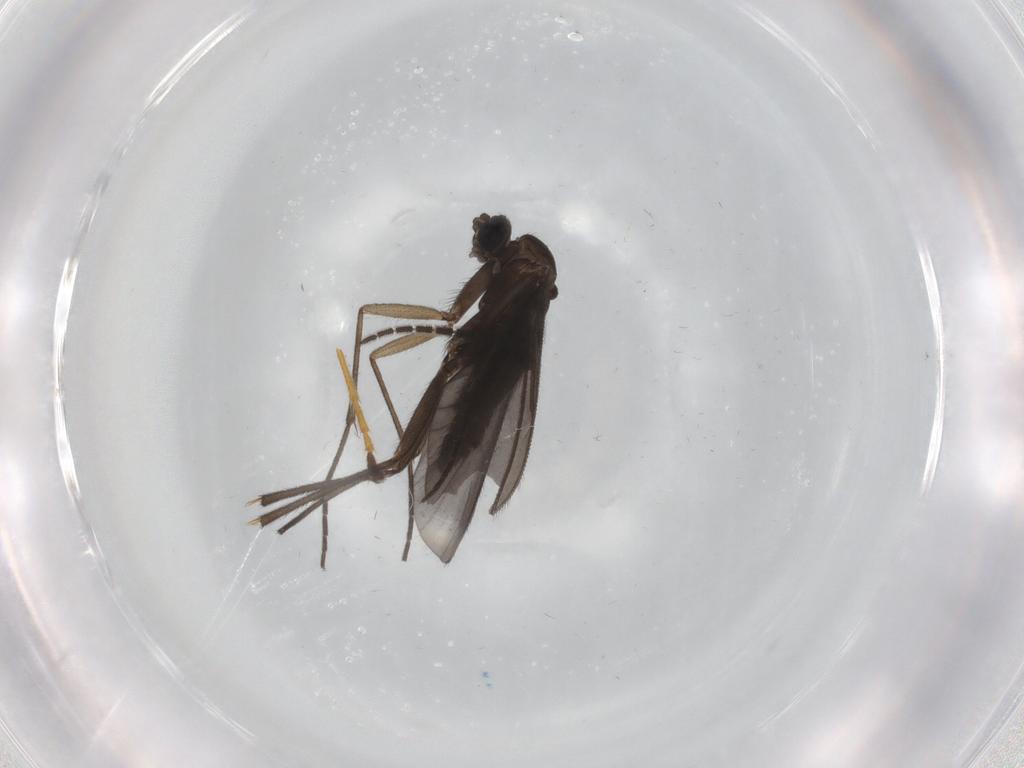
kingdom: Animalia
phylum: Arthropoda
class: Insecta
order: Diptera
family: Sciaridae
